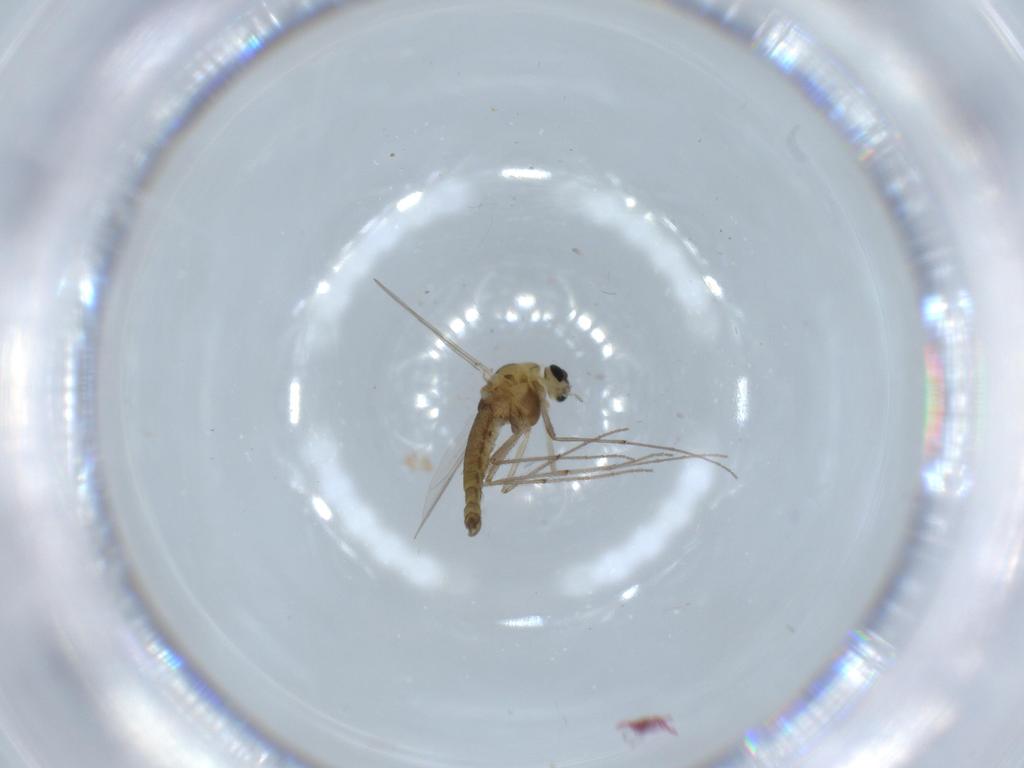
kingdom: Animalia
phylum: Arthropoda
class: Insecta
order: Diptera
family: Chironomidae
